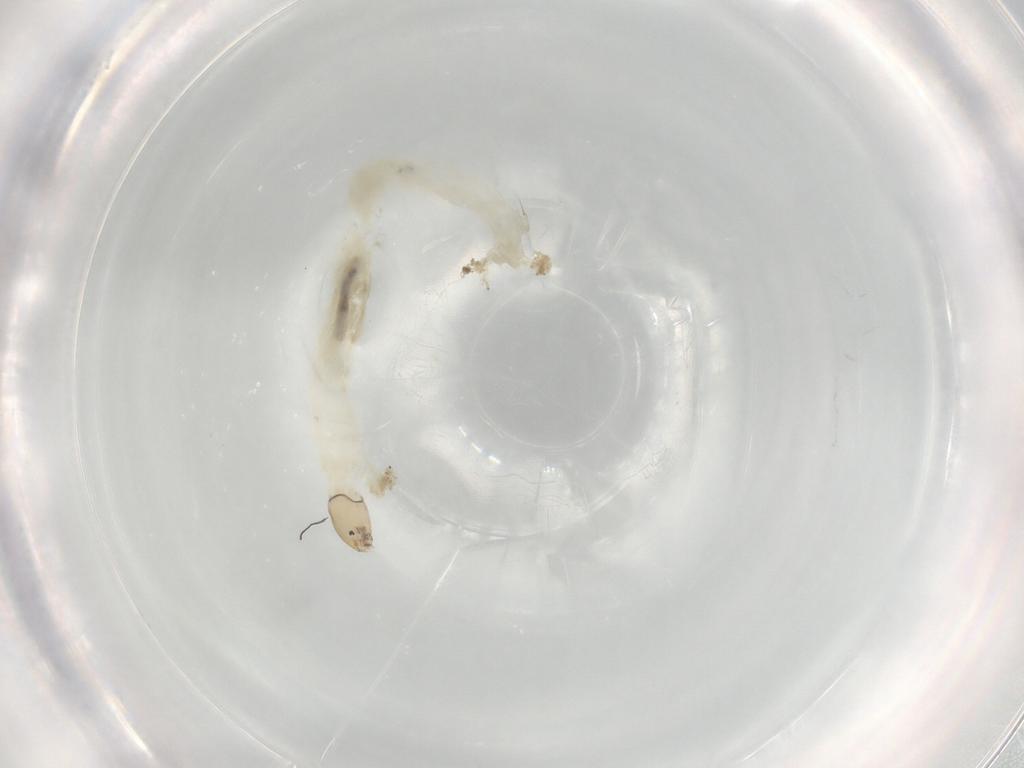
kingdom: Animalia
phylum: Arthropoda
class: Insecta
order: Diptera
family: Chironomidae
